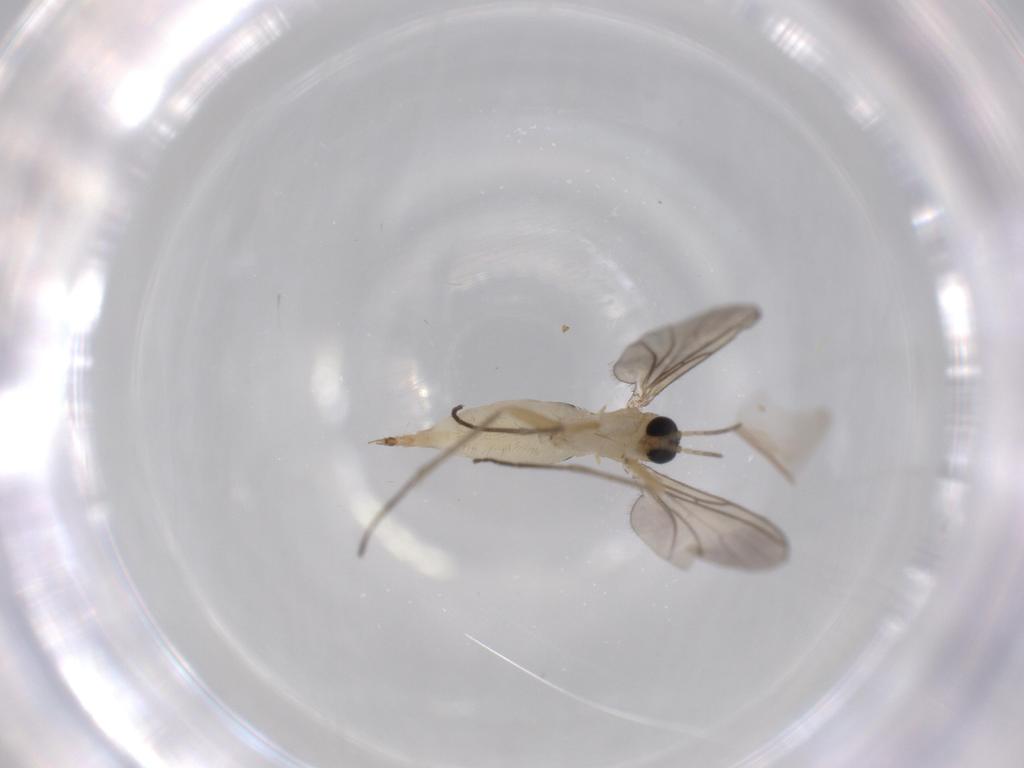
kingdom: Animalia
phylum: Arthropoda
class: Insecta
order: Diptera
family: Sciaridae
